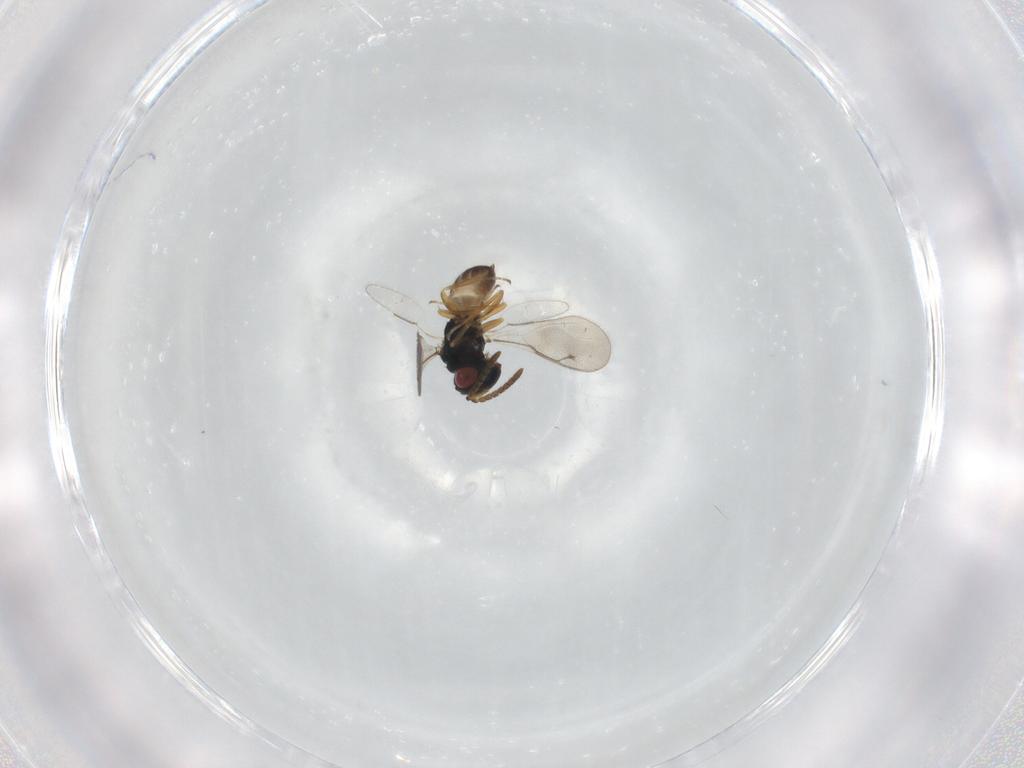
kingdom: Animalia
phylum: Arthropoda
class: Insecta
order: Hymenoptera
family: Pteromalidae
